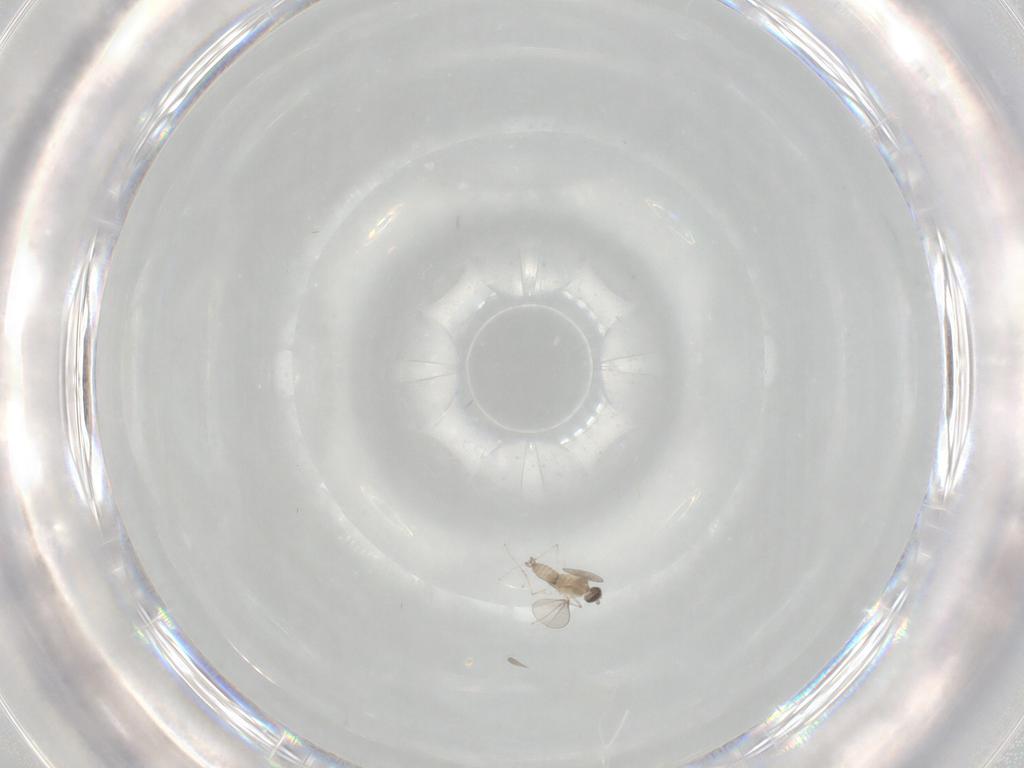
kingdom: Animalia
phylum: Arthropoda
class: Insecta
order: Diptera
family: Cecidomyiidae
